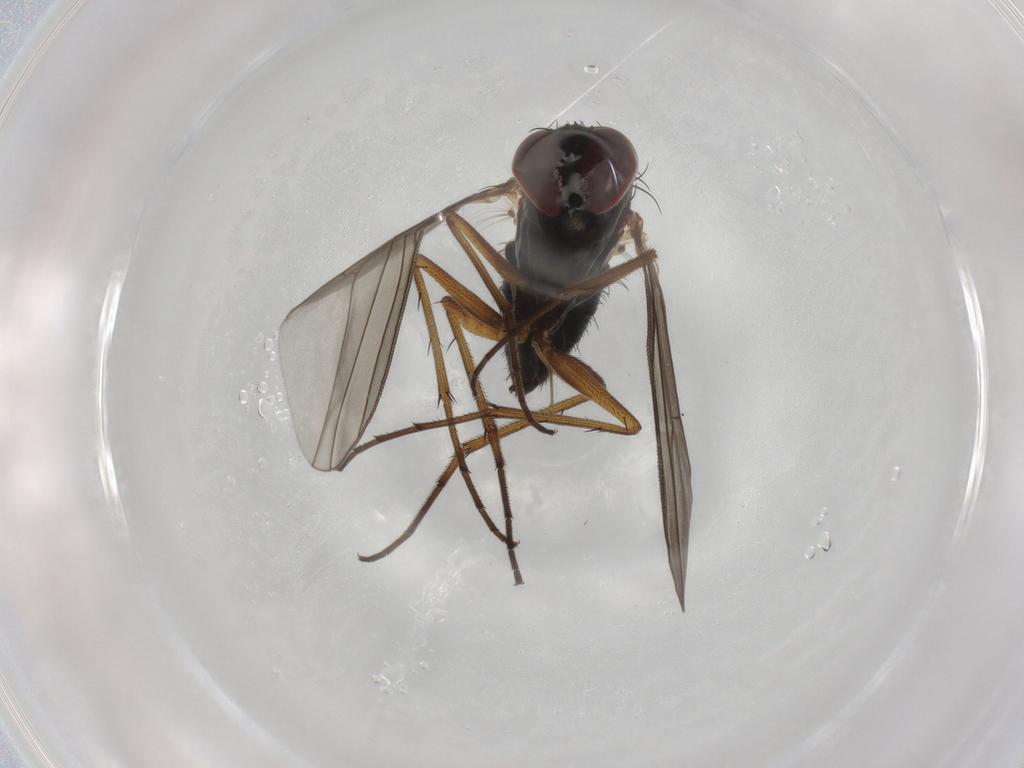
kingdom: Animalia
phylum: Arthropoda
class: Insecta
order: Diptera
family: Dolichopodidae
